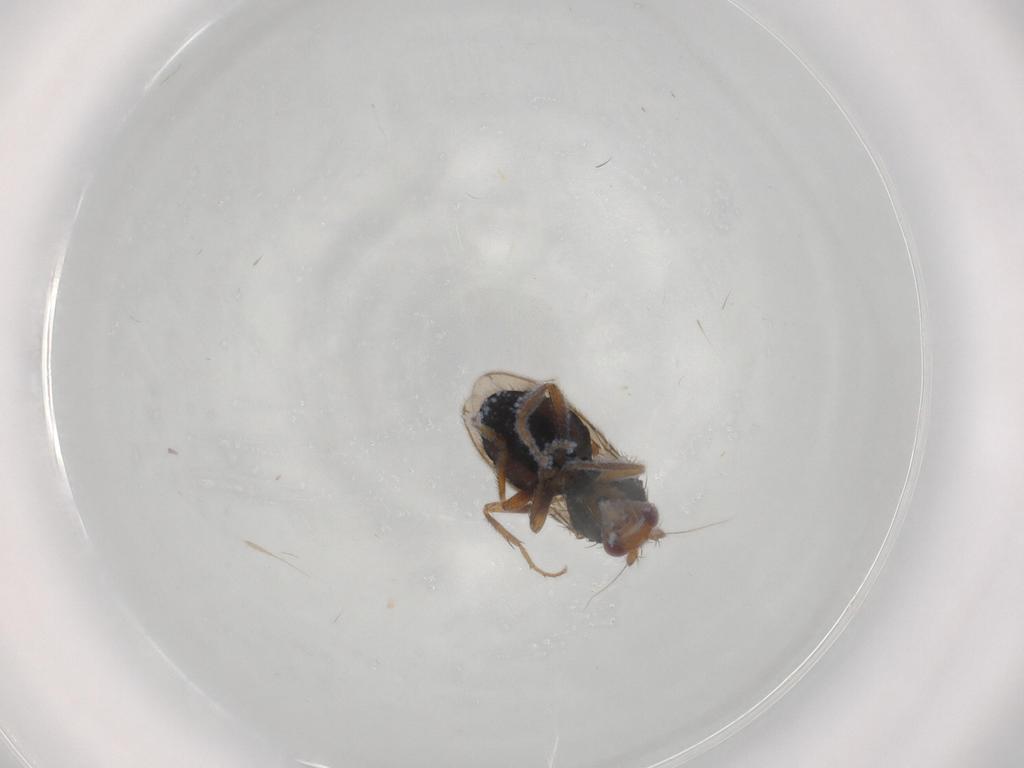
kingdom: Animalia
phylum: Arthropoda
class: Insecta
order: Diptera
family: Sphaeroceridae
